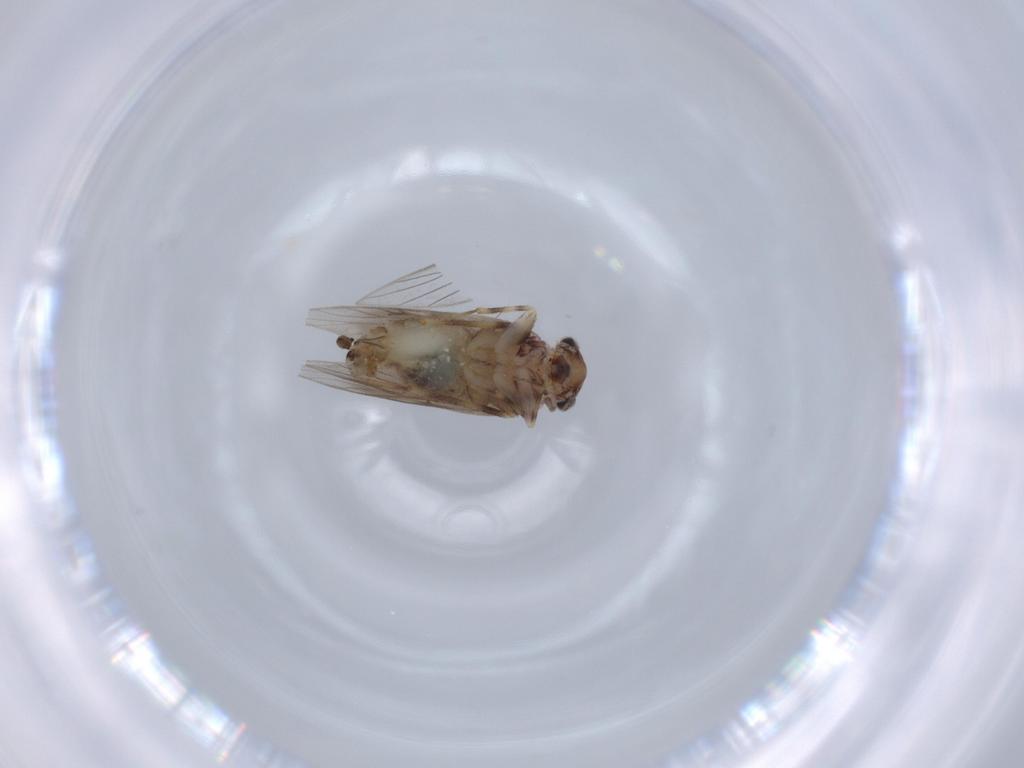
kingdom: Animalia
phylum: Arthropoda
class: Insecta
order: Psocodea
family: Lepidopsocidae
